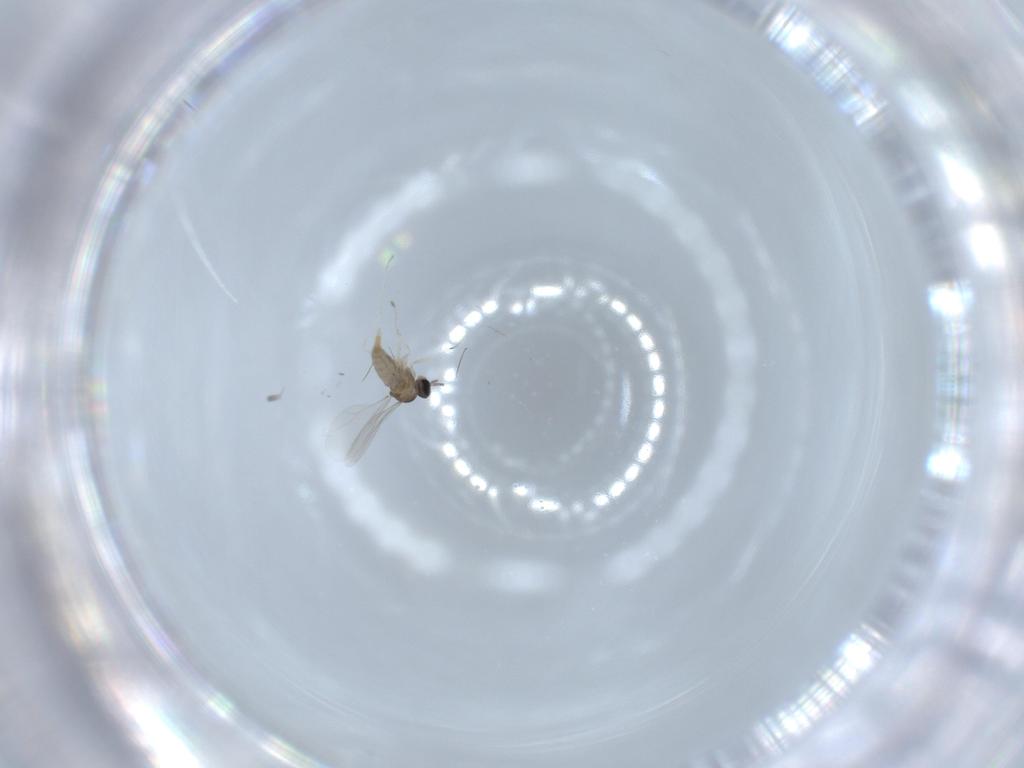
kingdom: Animalia
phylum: Arthropoda
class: Insecta
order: Diptera
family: Cecidomyiidae
